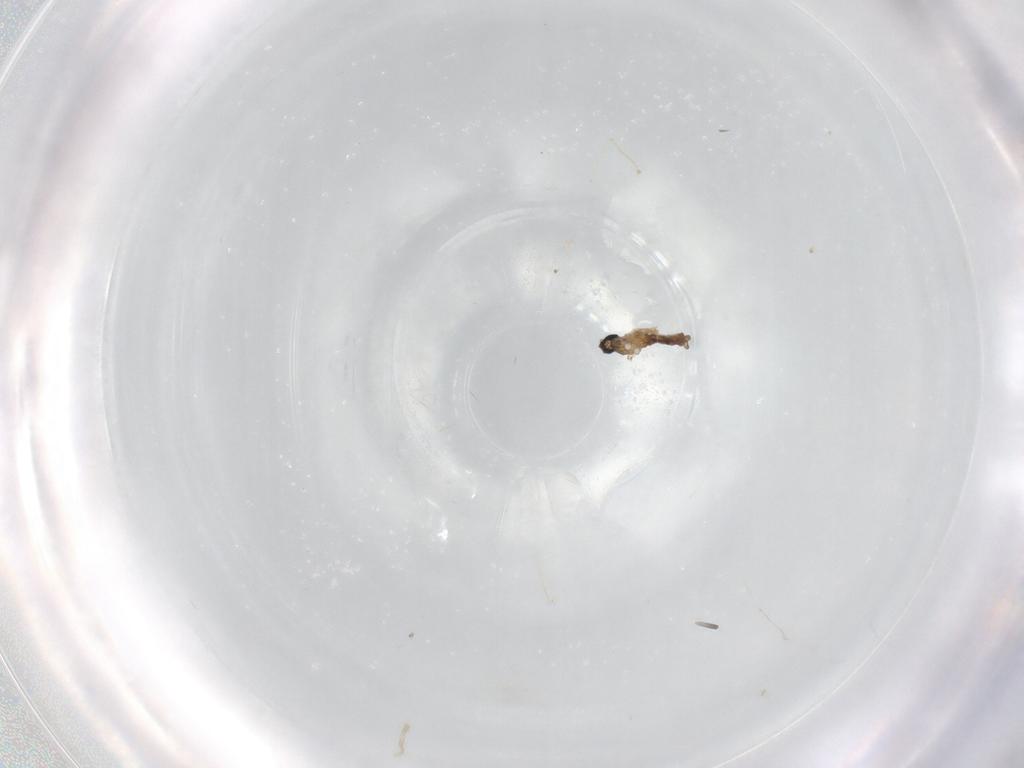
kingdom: Animalia
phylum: Arthropoda
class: Insecta
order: Diptera
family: Cecidomyiidae
